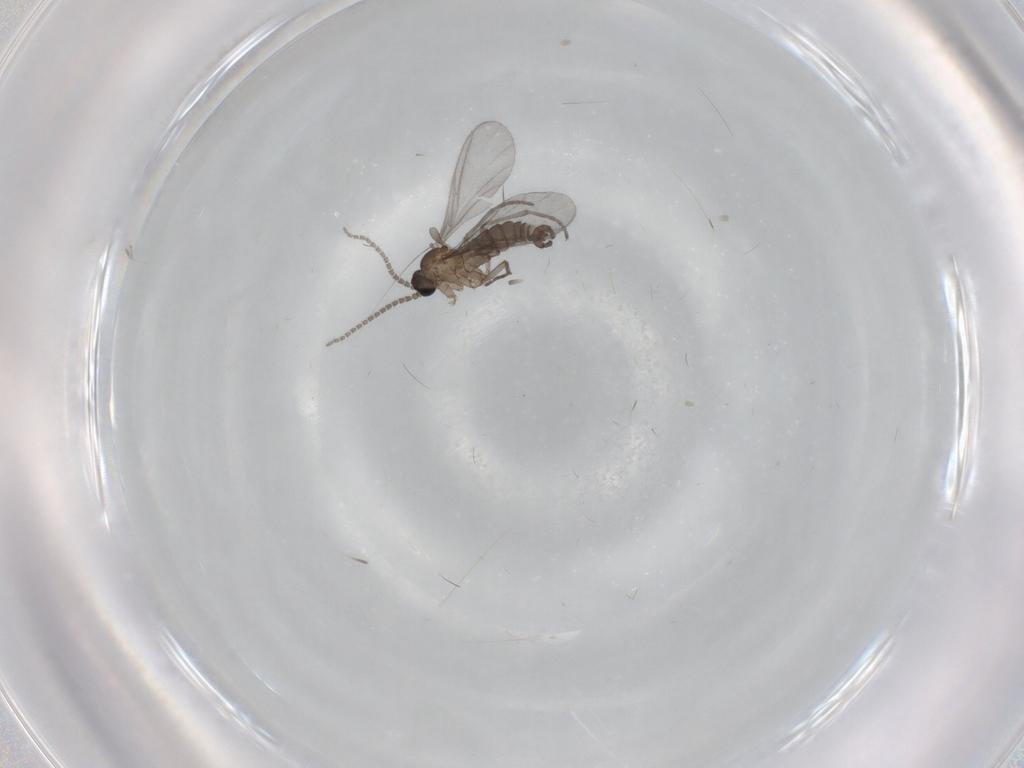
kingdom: Animalia
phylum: Arthropoda
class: Insecta
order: Diptera
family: Sciaridae
